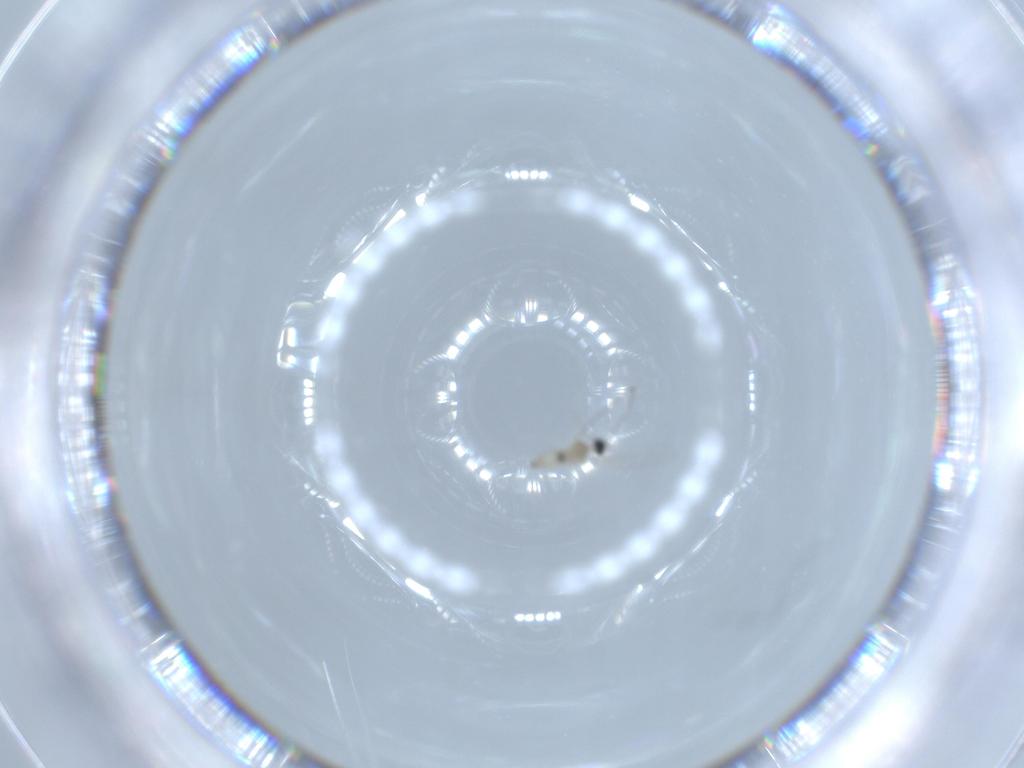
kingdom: Animalia
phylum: Arthropoda
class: Insecta
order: Diptera
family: Cecidomyiidae
